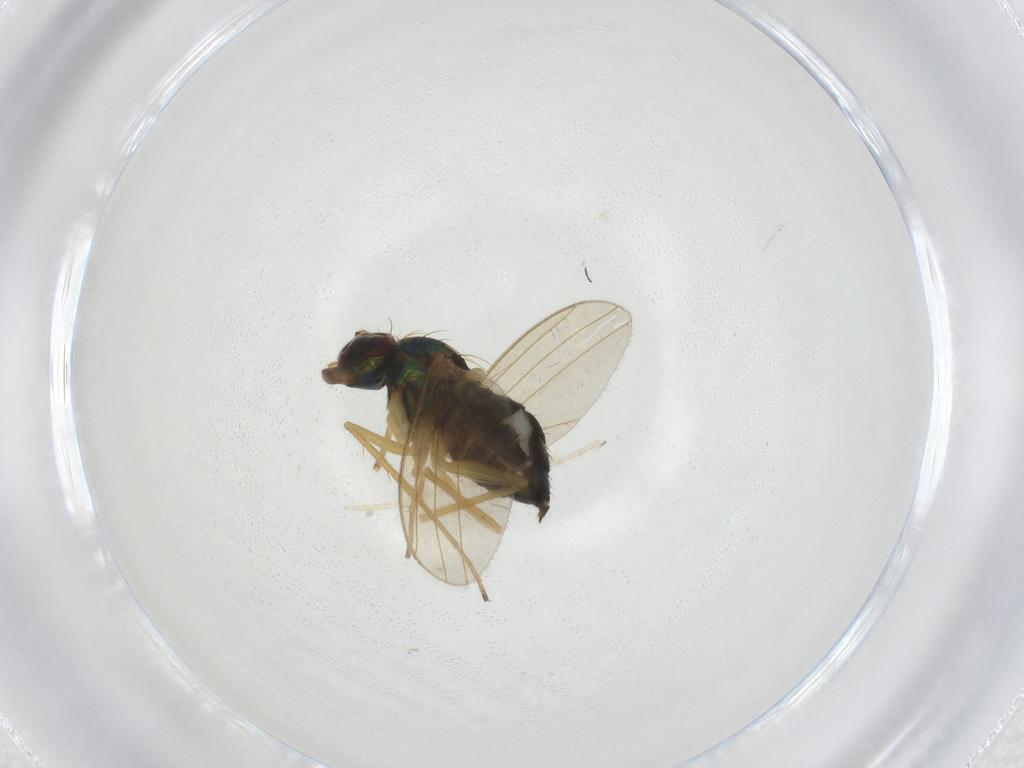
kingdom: Animalia
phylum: Arthropoda
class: Insecta
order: Diptera
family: Dolichopodidae
